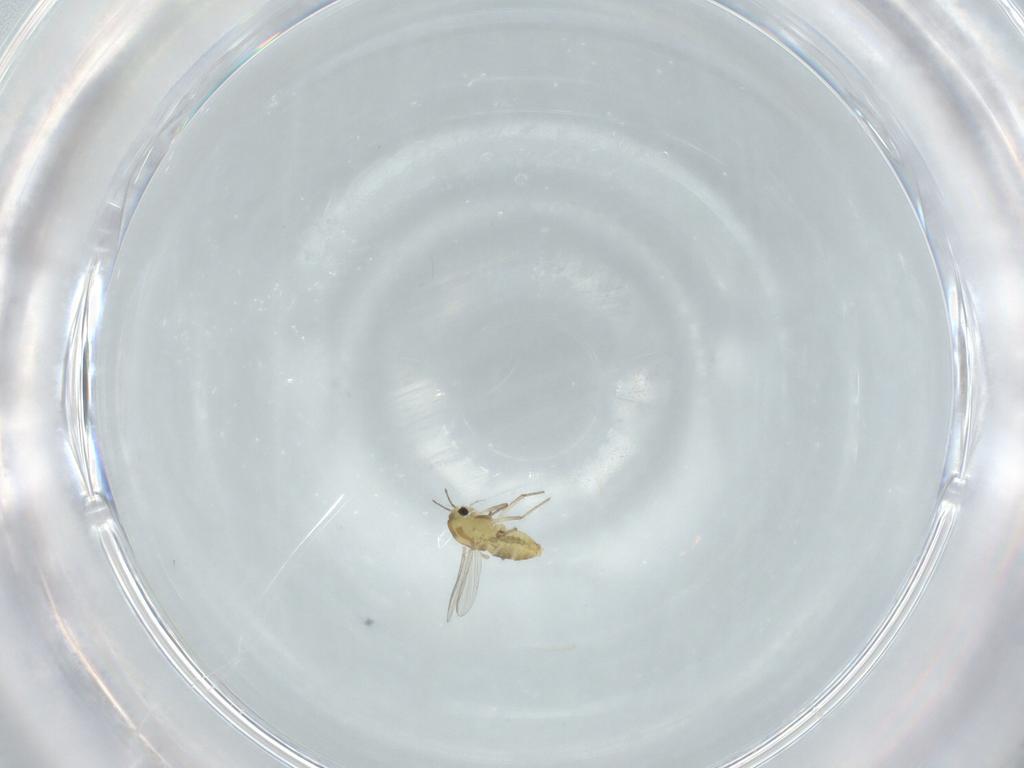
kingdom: Animalia
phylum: Arthropoda
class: Insecta
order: Diptera
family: Chironomidae
